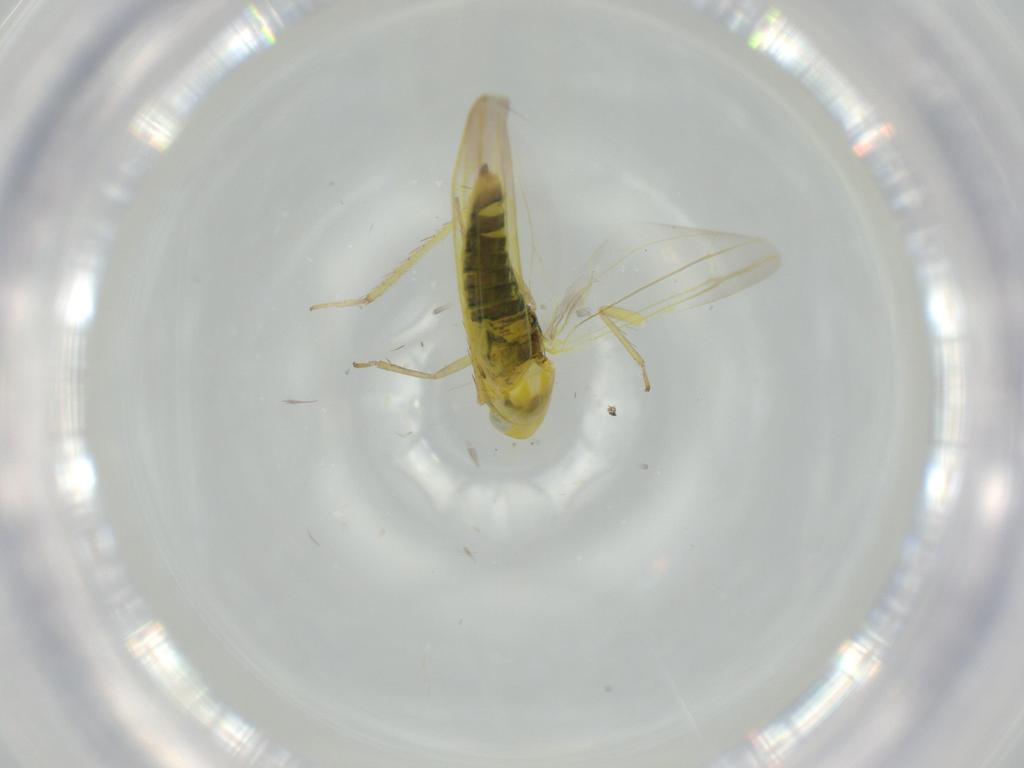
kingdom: Animalia
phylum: Arthropoda
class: Insecta
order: Hemiptera
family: Cicadellidae
